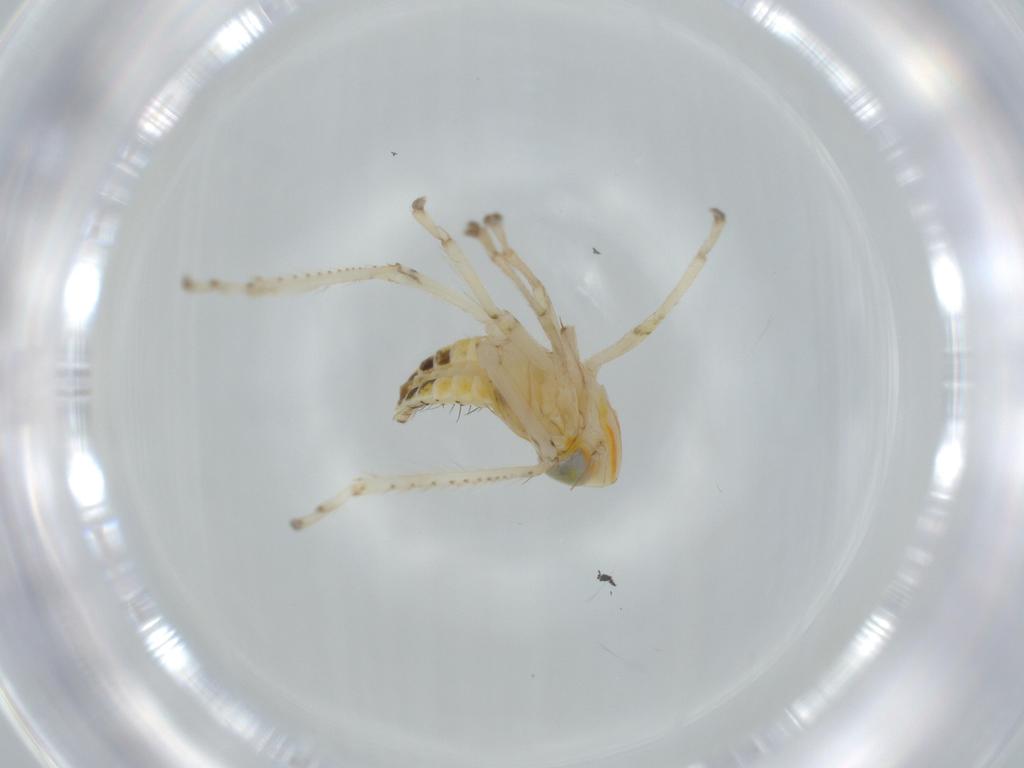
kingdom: Animalia
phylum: Arthropoda
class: Insecta
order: Hemiptera
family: Cicadellidae
